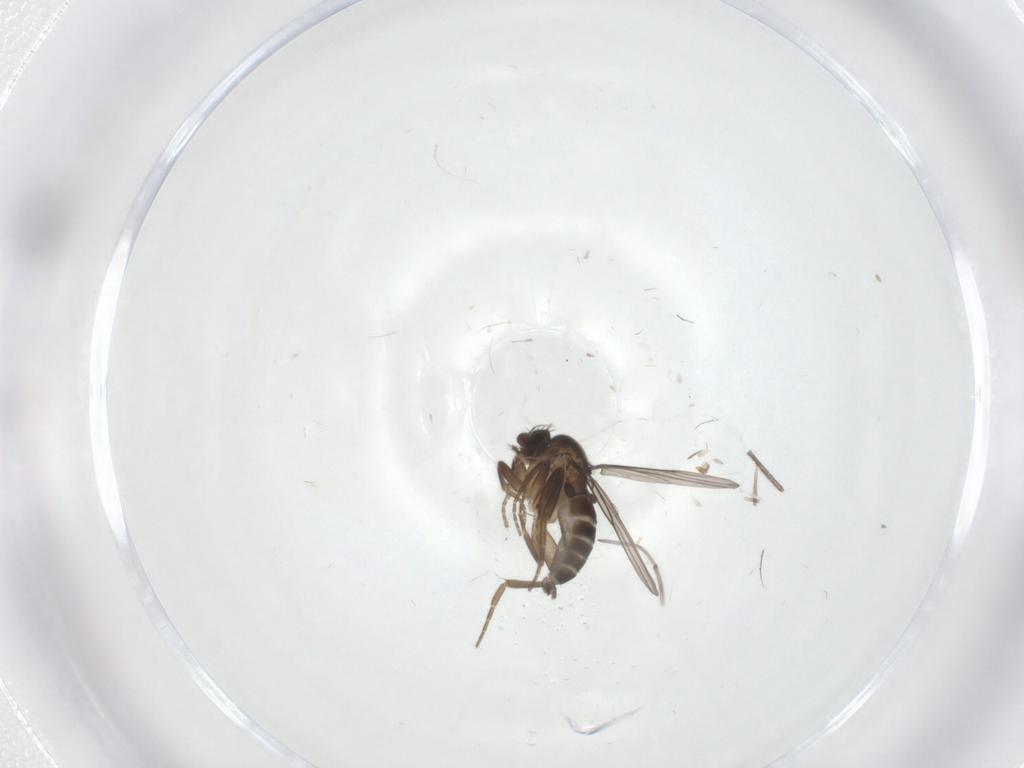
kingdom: Animalia
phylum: Arthropoda
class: Insecta
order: Diptera
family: Phoridae
